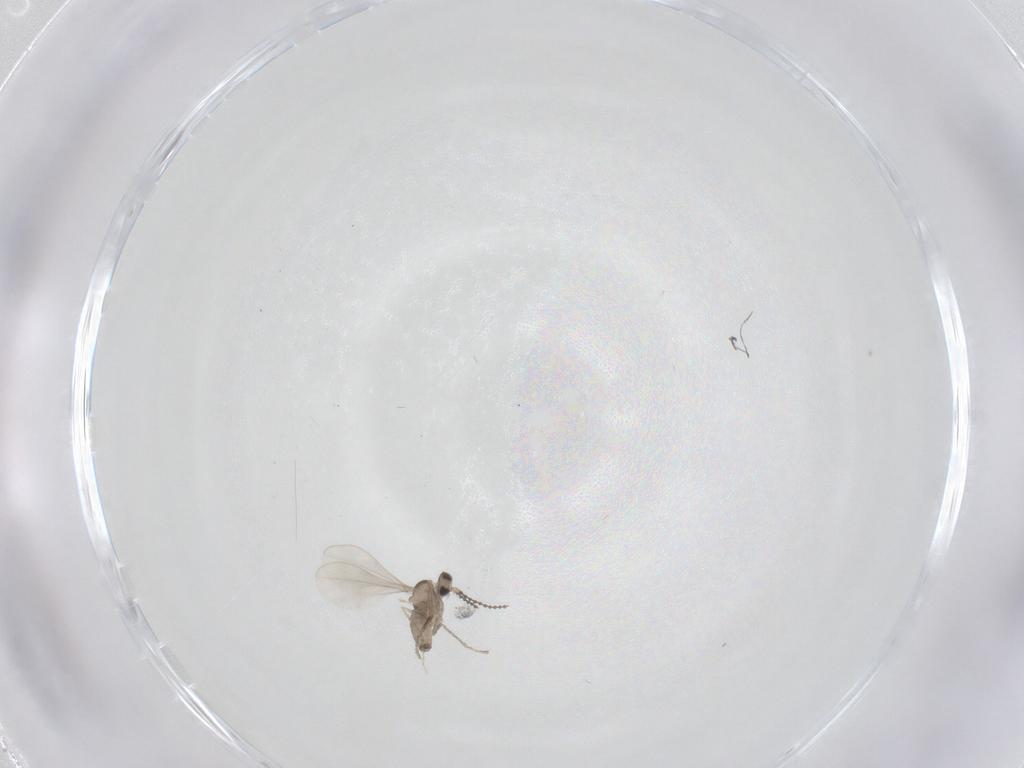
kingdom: Animalia
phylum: Arthropoda
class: Insecta
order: Diptera
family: Cecidomyiidae
